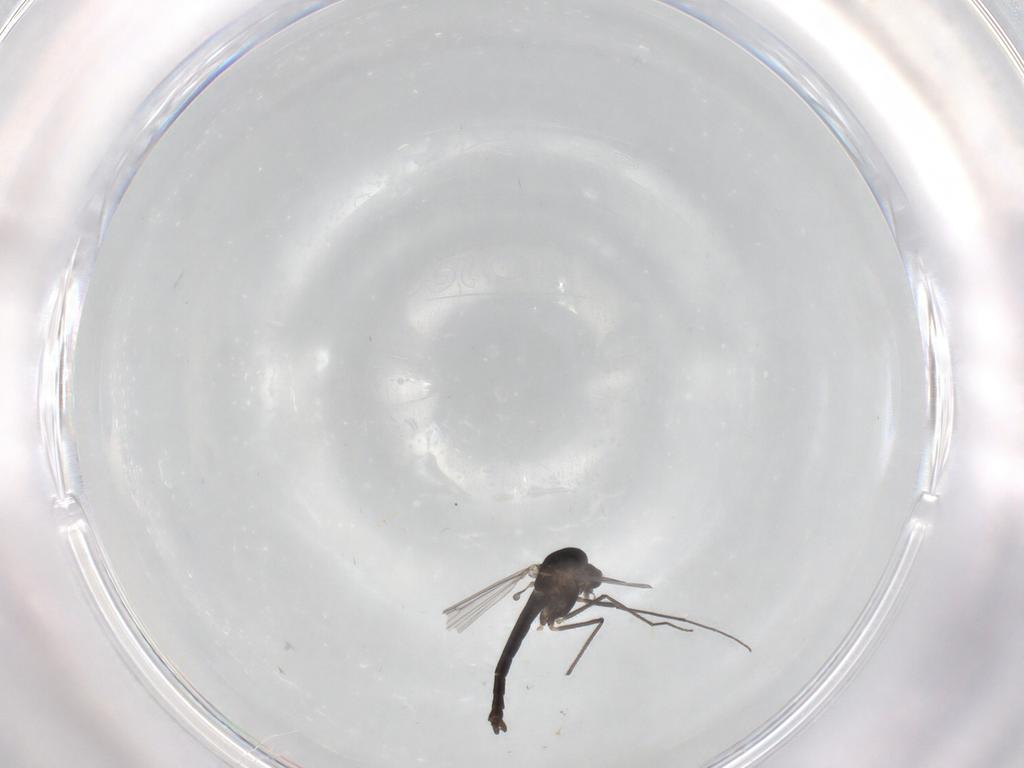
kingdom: Animalia
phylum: Arthropoda
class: Insecta
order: Diptera
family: Chironomidae
